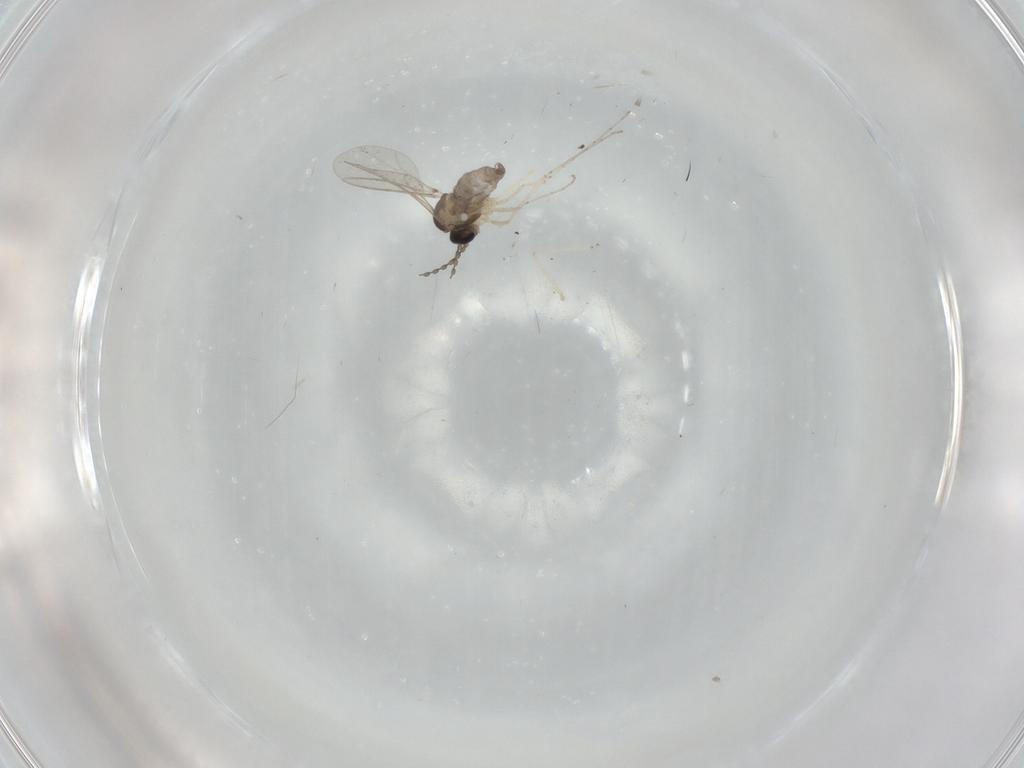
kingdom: Animalia
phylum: Arthropoda
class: Insecta
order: Diptera
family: Cecidomyiidae
